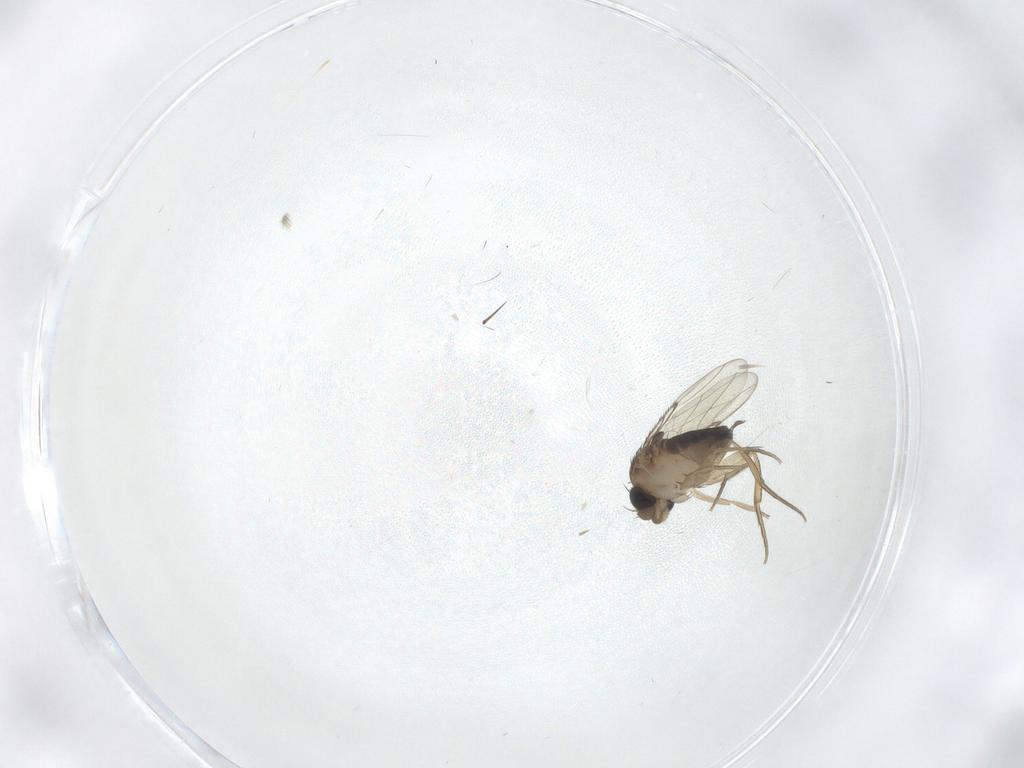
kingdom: Animalia
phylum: Arthropoda
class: Insecta
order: Diptera
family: Chironomidae
